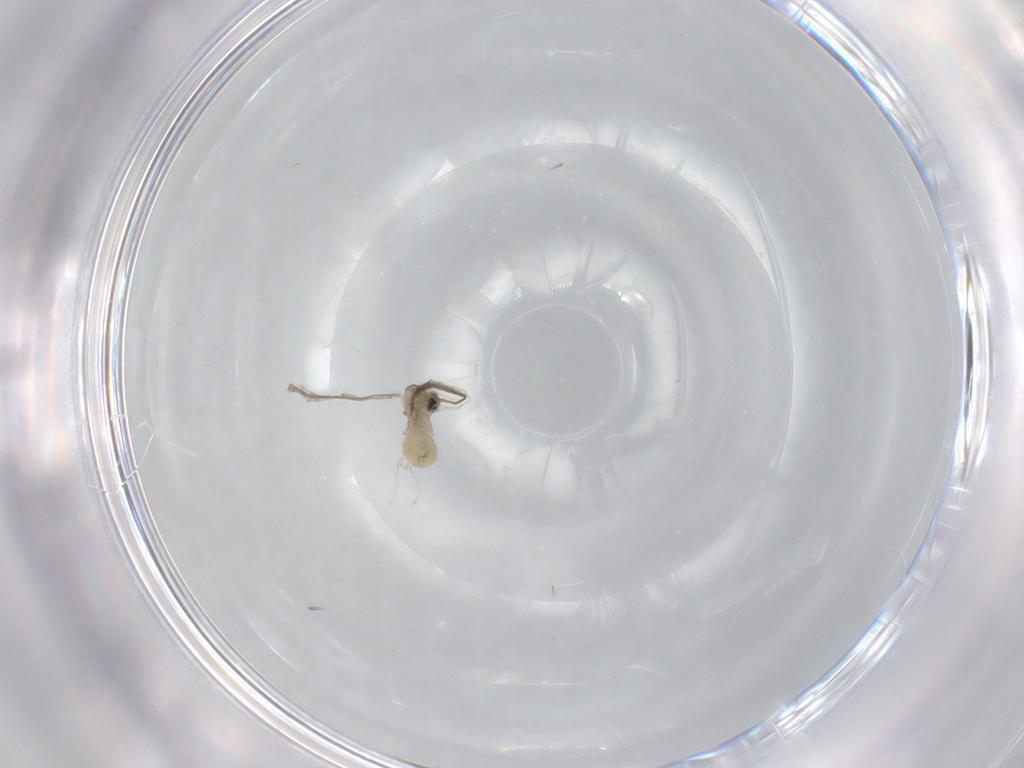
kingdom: Animalia
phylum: Arthropoda
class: Insecta
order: Diptera
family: Cecidomyiidae
